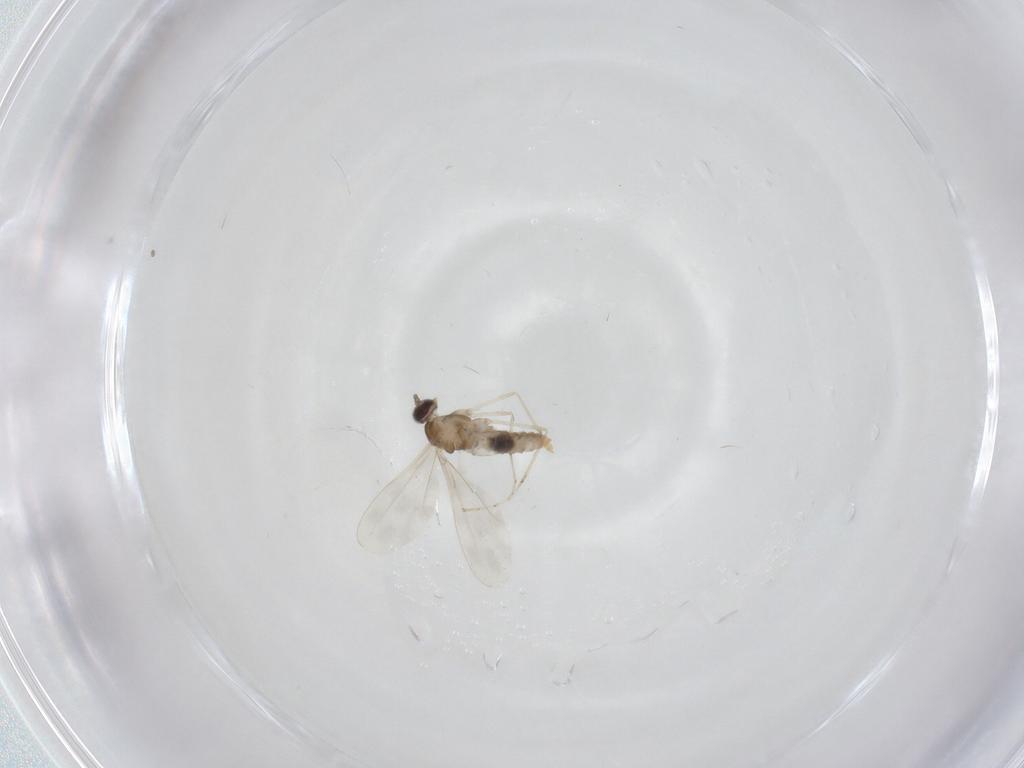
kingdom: Animalia
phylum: Arthropoda
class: Insecta
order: Diptera
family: Cecidomyiidae
